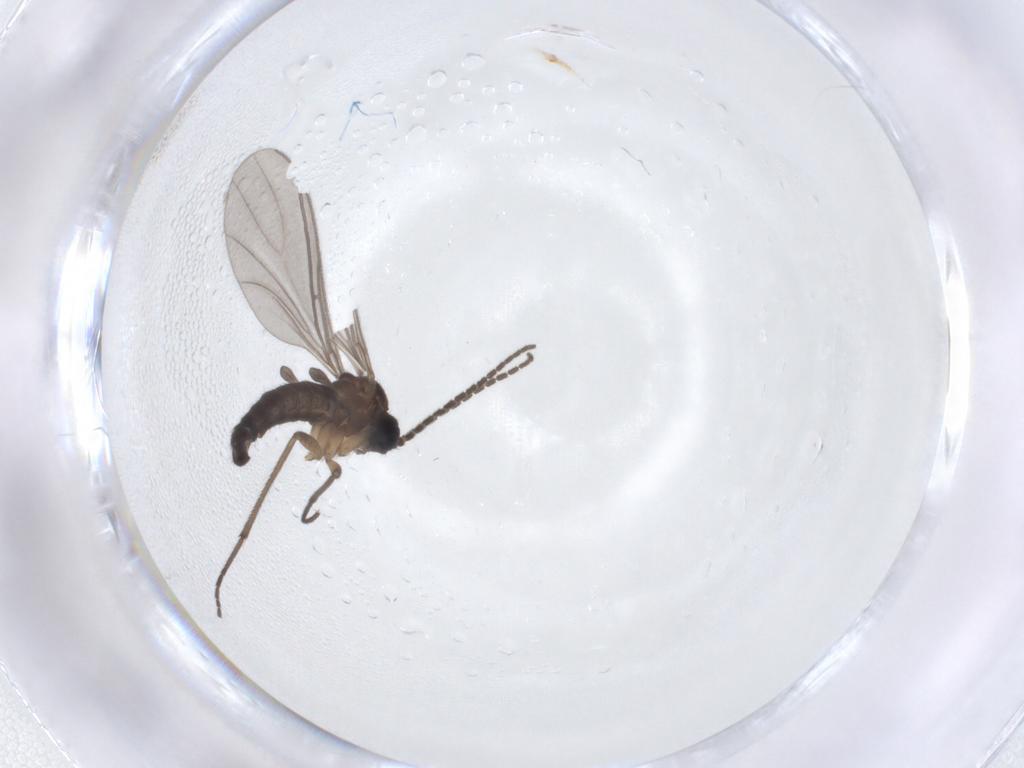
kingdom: Animalia
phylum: Arthropoda
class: Insecta
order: Diptera
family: Sciaridae
